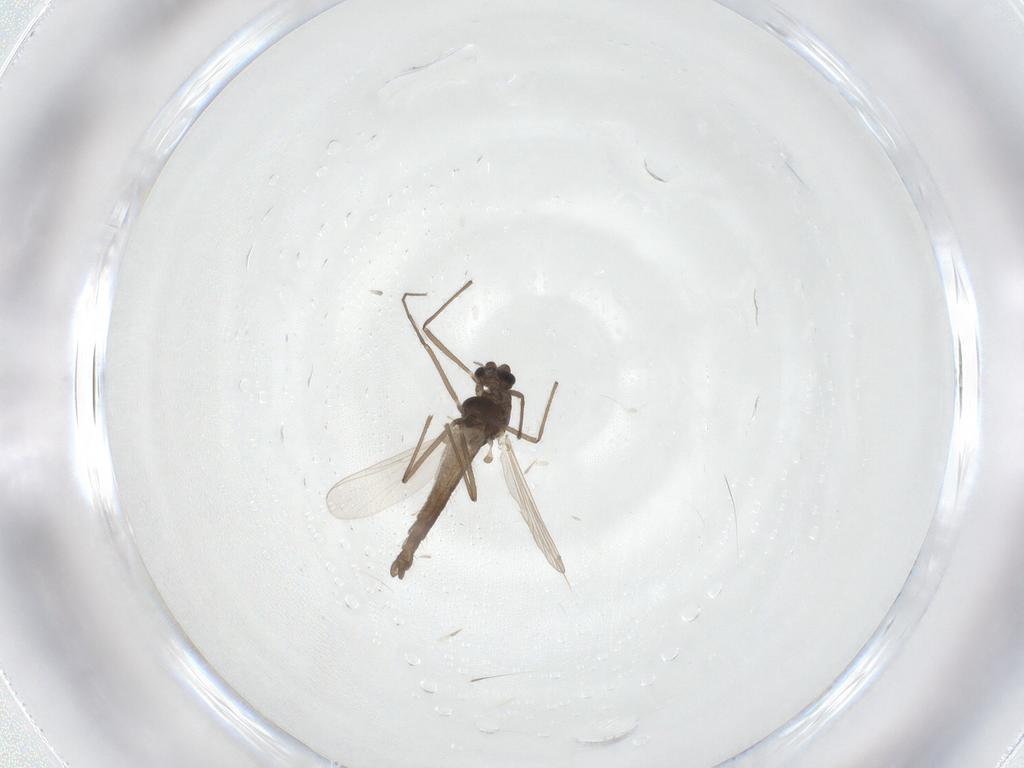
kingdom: Animalia
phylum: Arthropoda
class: Insecta
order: Diptera
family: Chironomidae
